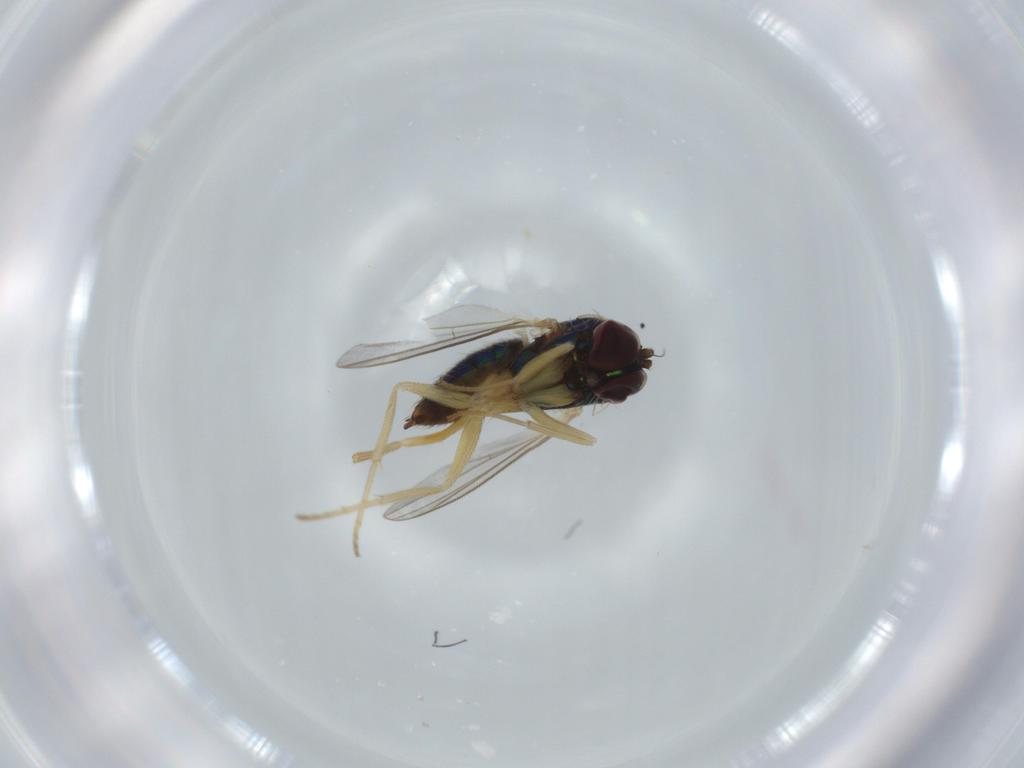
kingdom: Animalia
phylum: Arthropoda
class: Insecta
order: Diptera
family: Dolichopodidae
